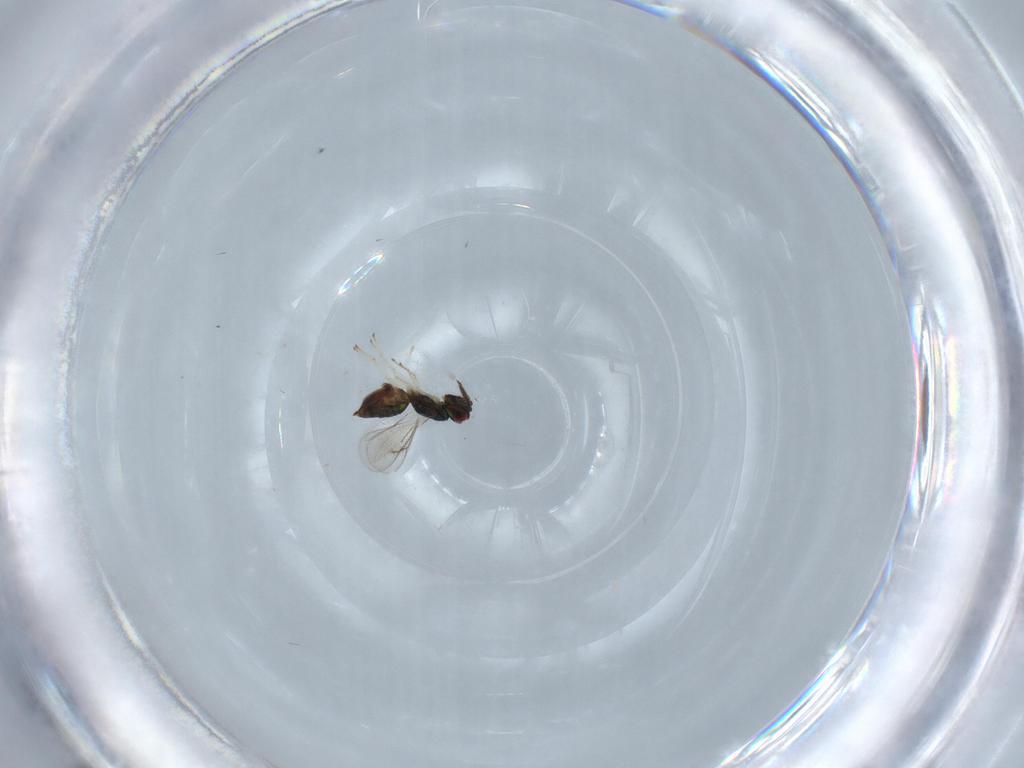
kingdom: Animalia
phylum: Arthropoda
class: Insecta
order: Hymenoptera
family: Eulophidae
